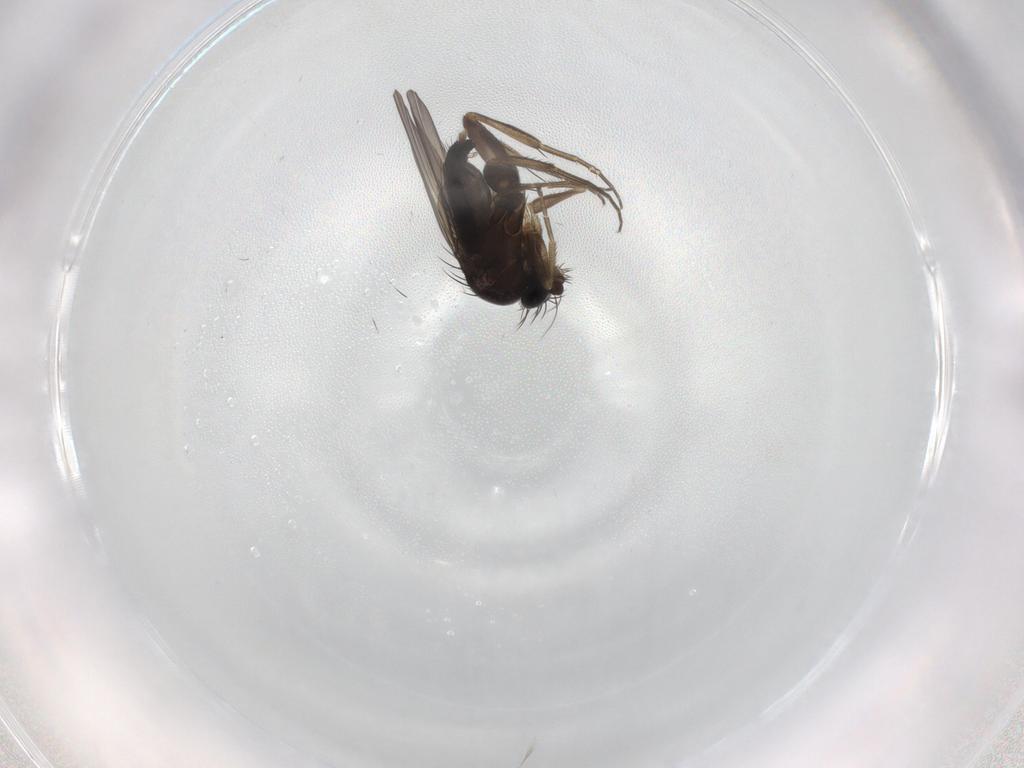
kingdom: Animalia
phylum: Arthropoda
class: Insecta
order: Diptera
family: Phoridae
